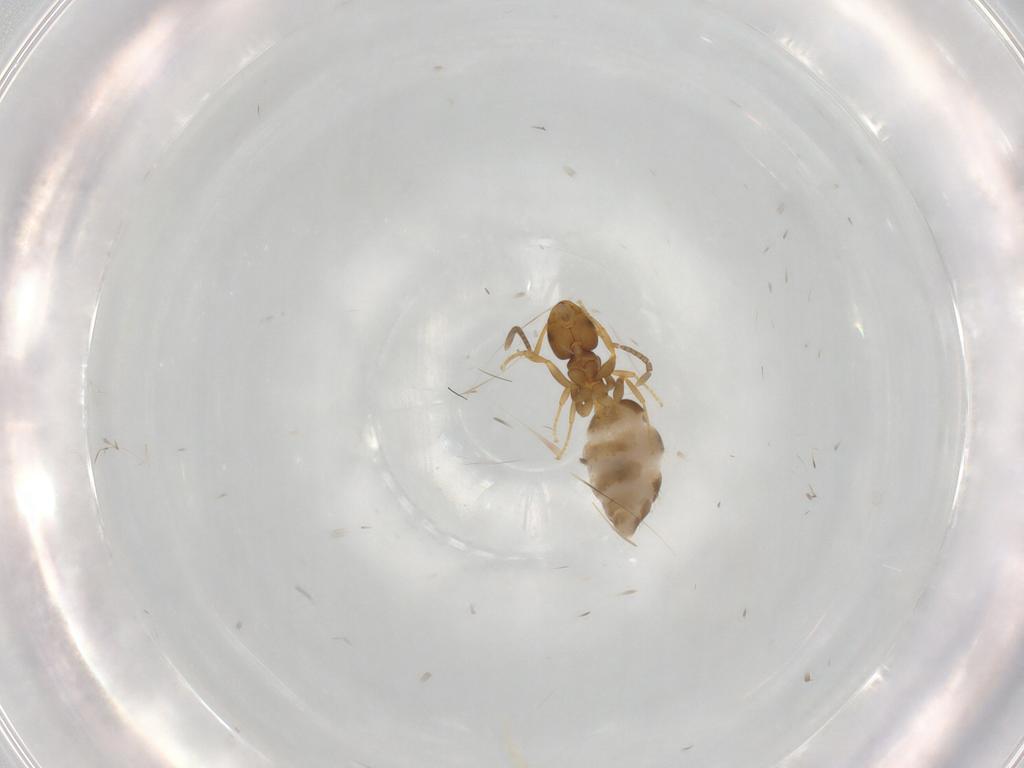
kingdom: Animalia
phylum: Arthropoda
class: Insecta
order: Hymenoptera
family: Formicidae
